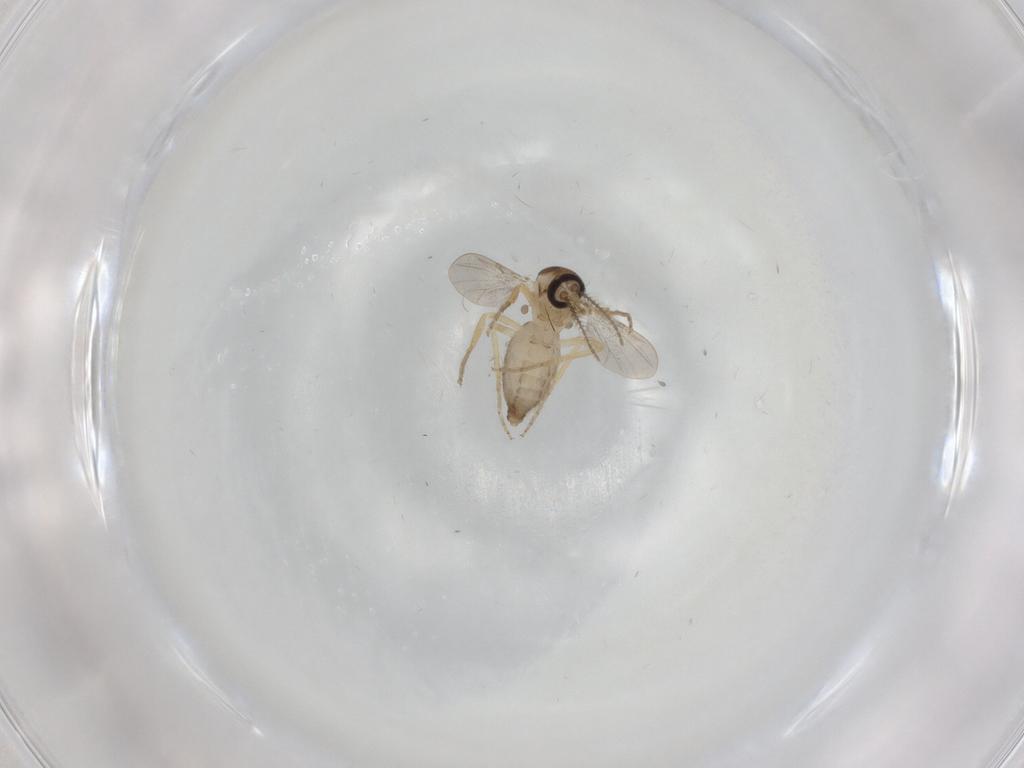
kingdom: Animalia
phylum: Arthropoda
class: Insecta
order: Diptera
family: Ceratopogonidae
